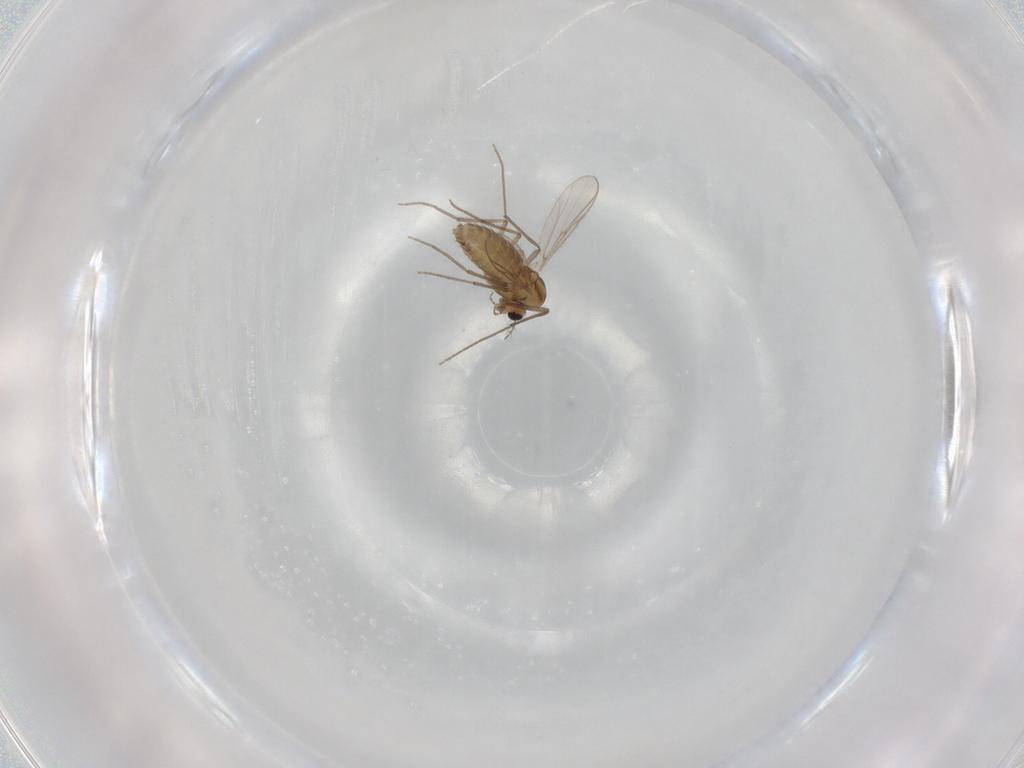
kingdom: Animalia
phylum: Arthropoda
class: Insecta
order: Diptera
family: Chironomidae
